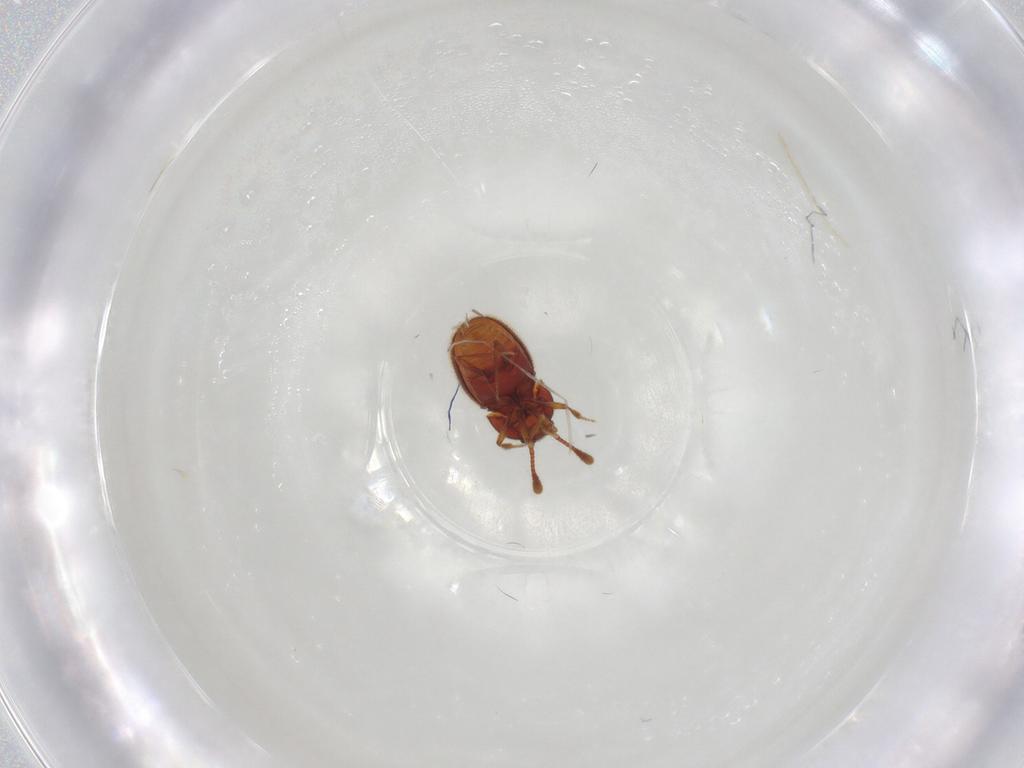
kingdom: Animalia
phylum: Arthropoda
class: Insecta
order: Coleoptera
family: Staphylinidae
